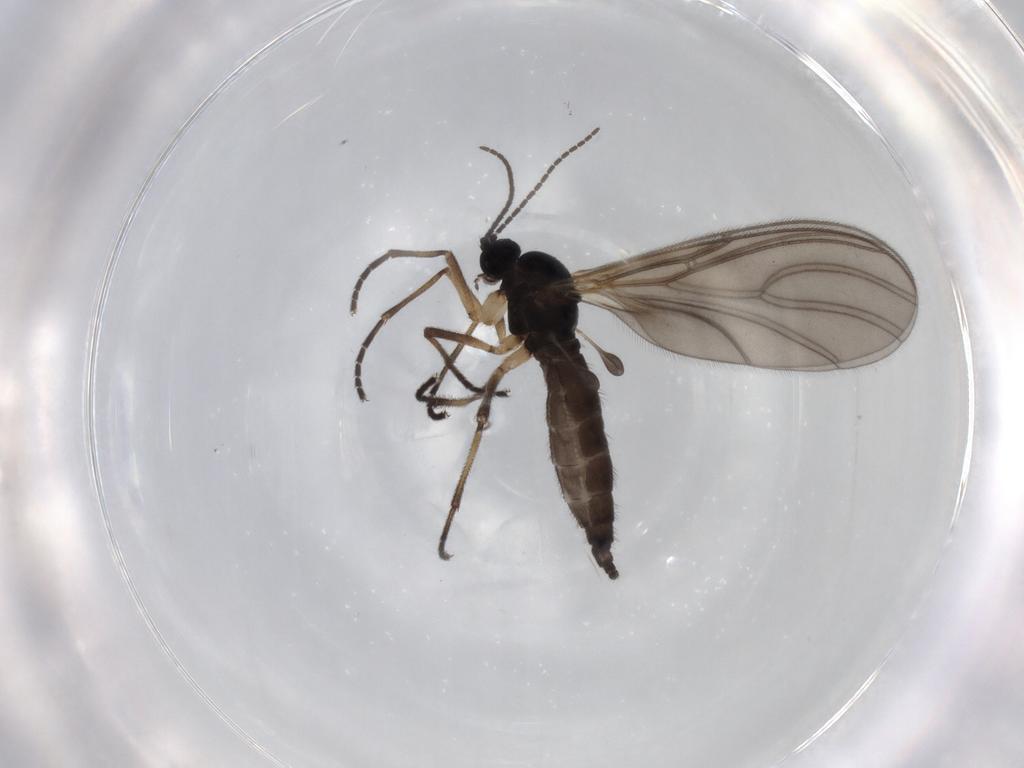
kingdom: Animalia
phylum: Arthropoda
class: Insecta
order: Diptera
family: Sciaridae
